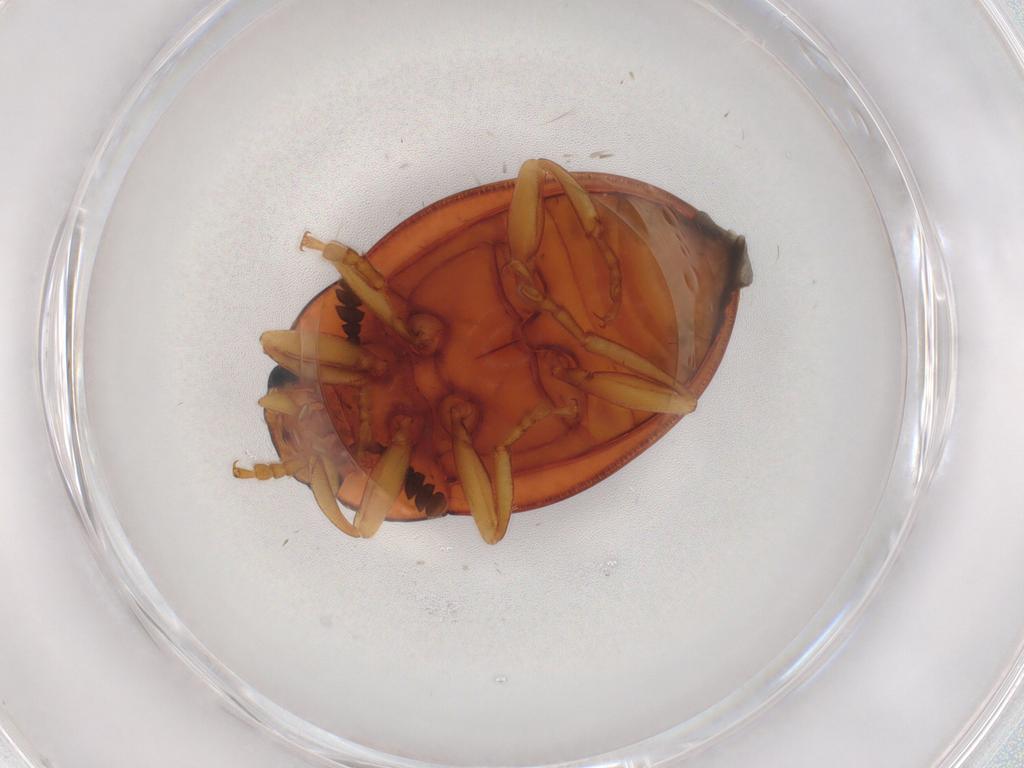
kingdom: Animalia
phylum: Arthropoda
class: Insecta
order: Coleoptera
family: Erotylidae
